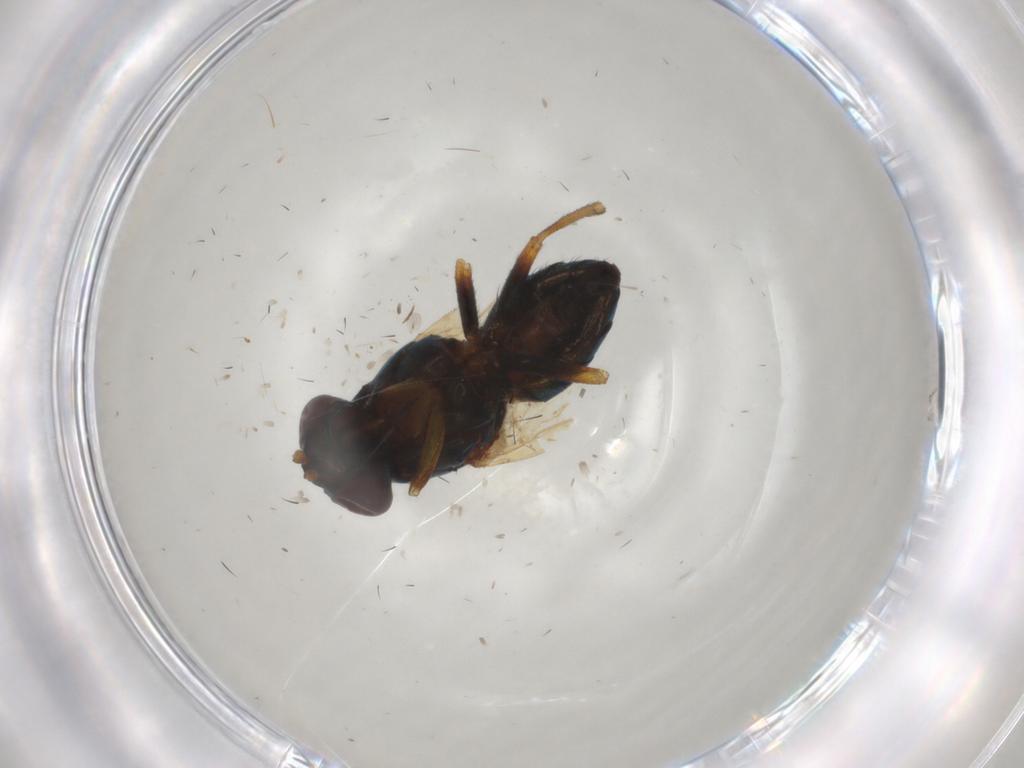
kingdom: Animalia
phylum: Arthropoda
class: Insecta
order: Diptera
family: Lauxaniidae
